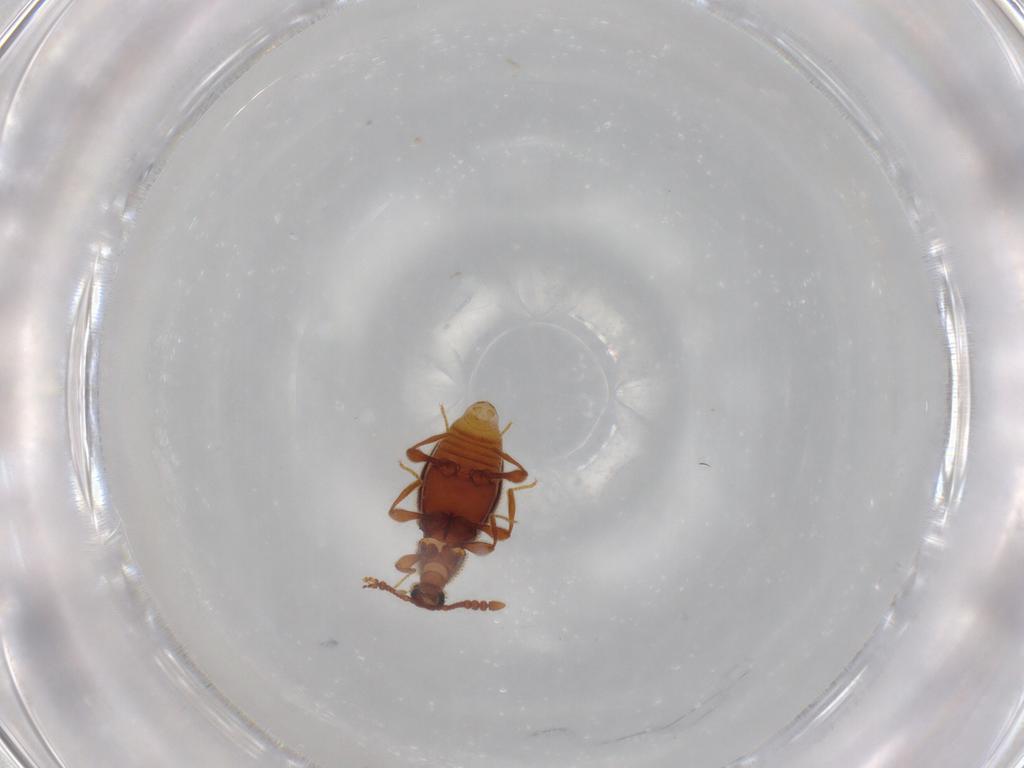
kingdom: Animalia
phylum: Arthropoda
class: Insecta
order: Coleoptera
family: Staphylinidae
